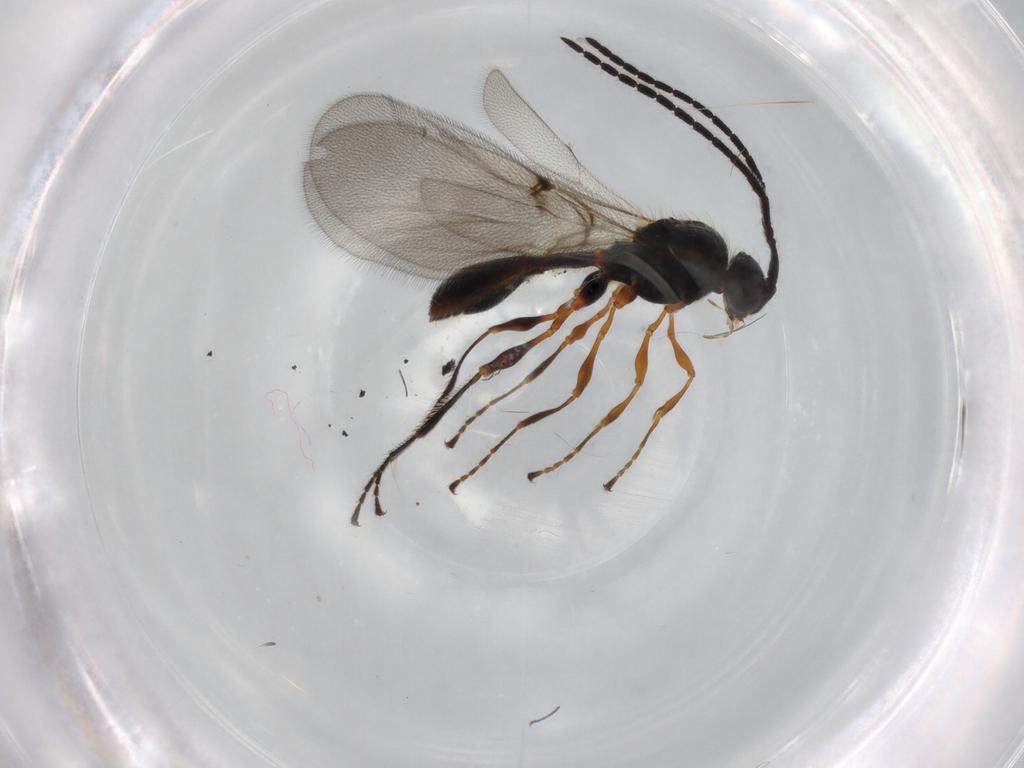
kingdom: Animalia
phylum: Arthropoda
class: Insecta
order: Hymenoptera
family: Diapriidae
